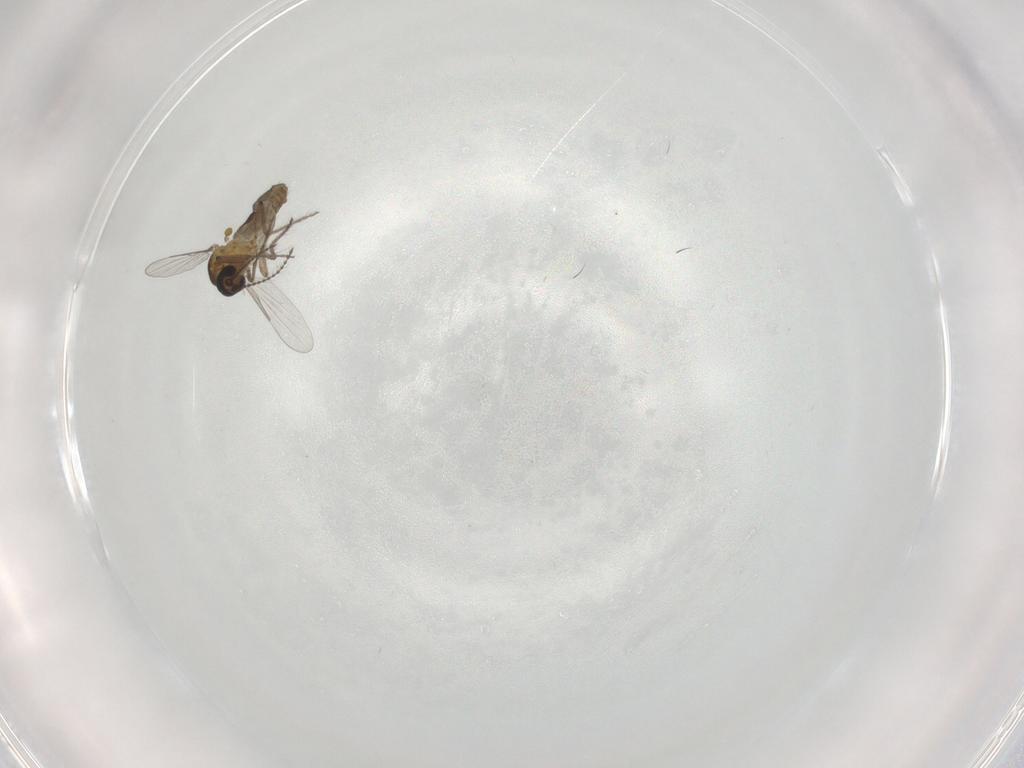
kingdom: Animalia
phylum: Arthropoda
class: Insecta
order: Diptera
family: Ceratopogonidae
